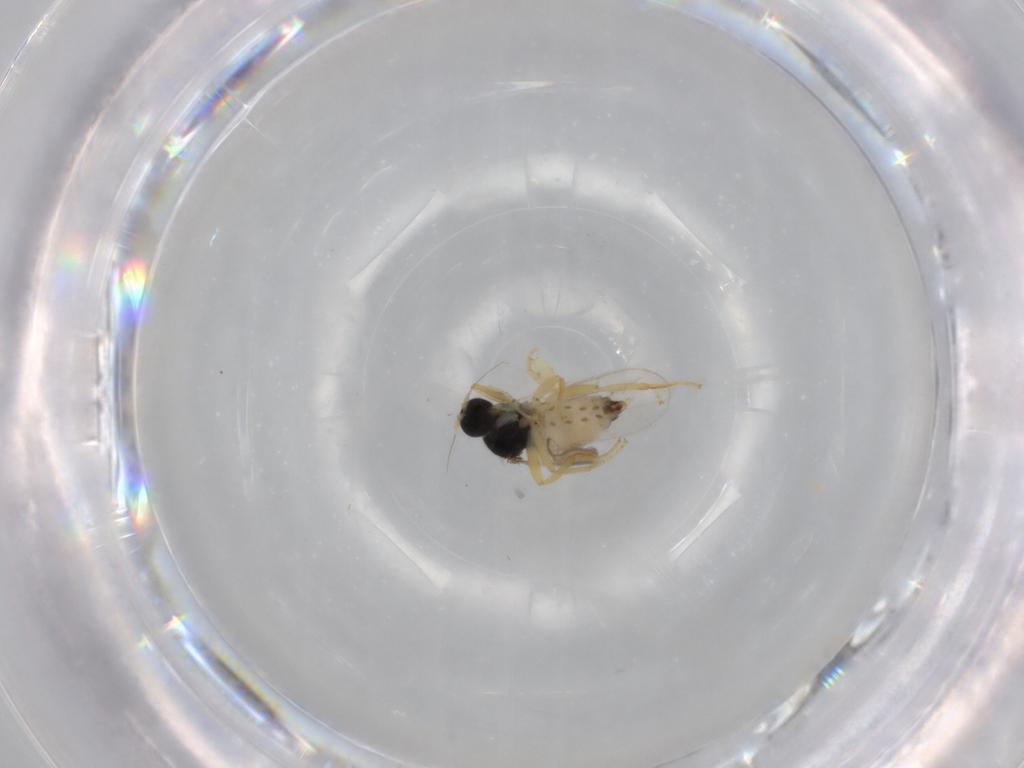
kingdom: Animalia
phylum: Arthropoda
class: Insecta
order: Diptera
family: Hybotidae
